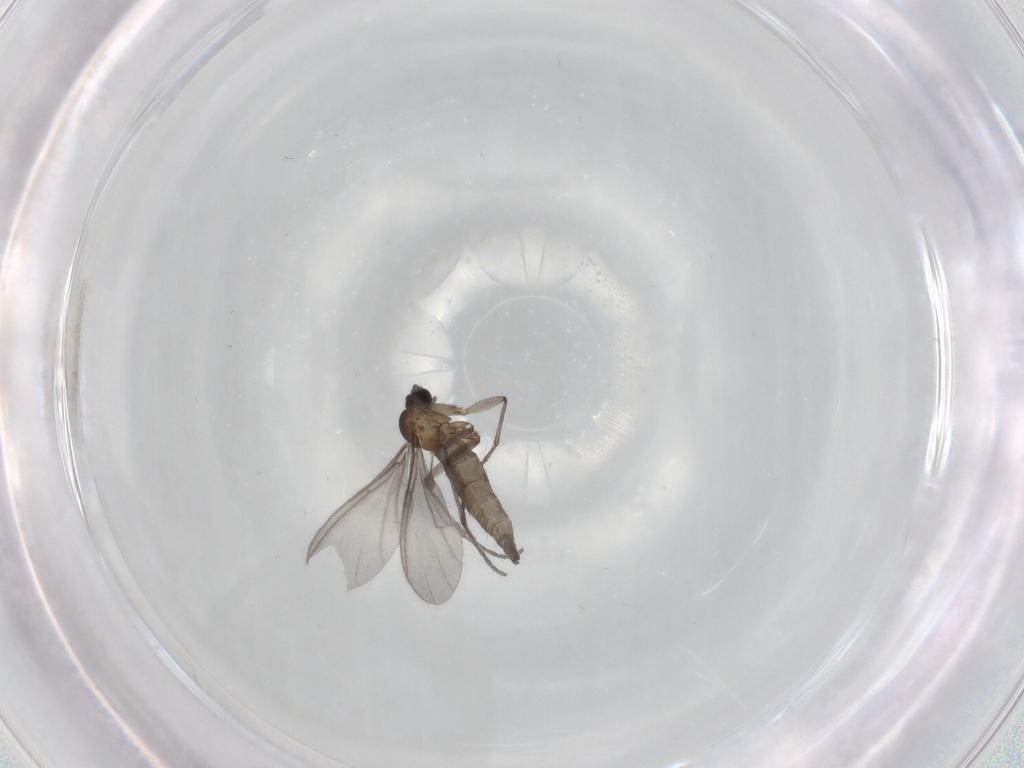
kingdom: Animalia
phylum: Arthropoda
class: Insecta
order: Diptera
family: Sciaridae
